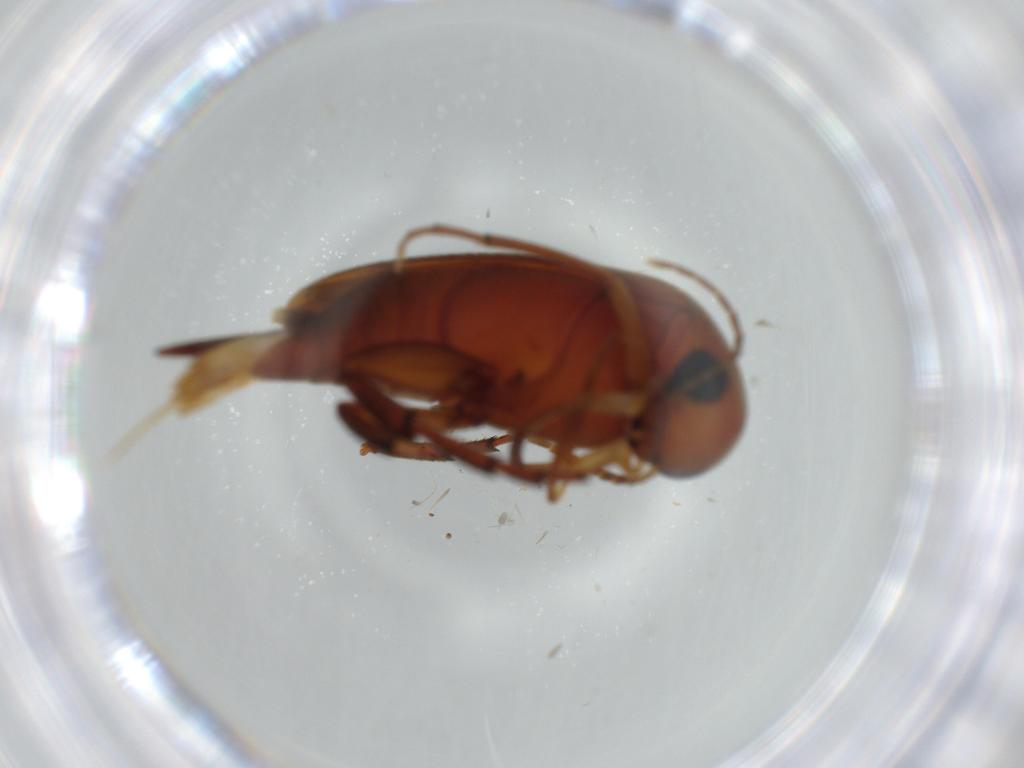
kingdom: Animalia
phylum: Arthropoda
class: Insecta
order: Coleoptera
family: Mordellidae
